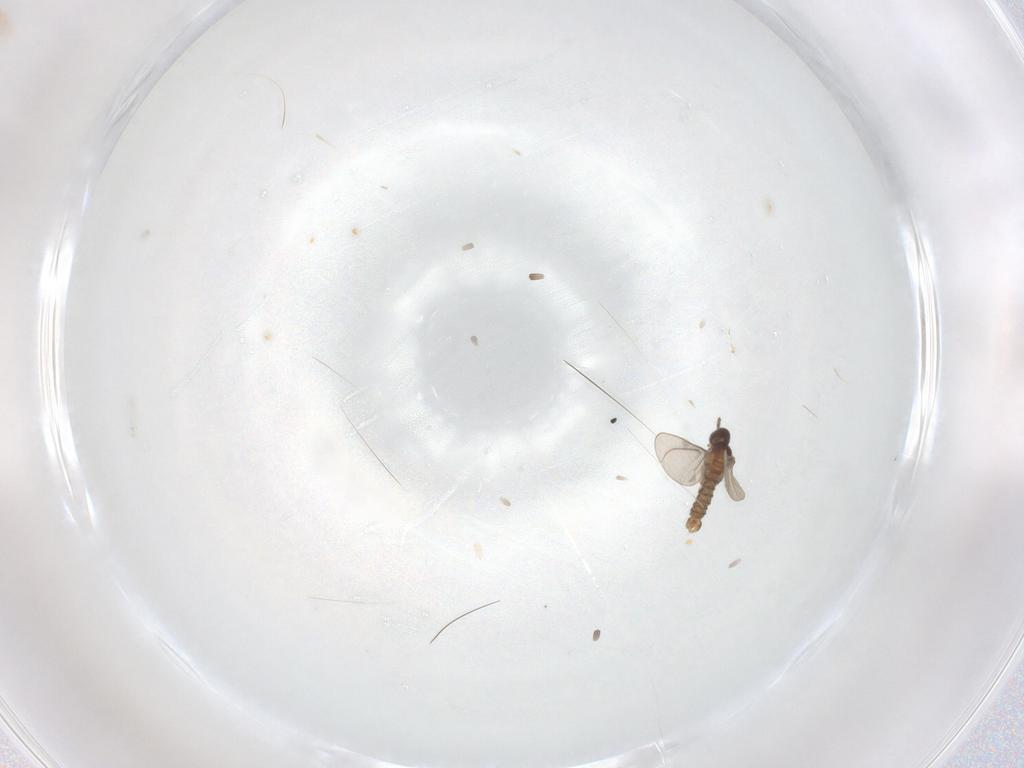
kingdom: Animalia
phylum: Arthropoda
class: Insecta
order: Diptera
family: Cecidomyiidae
